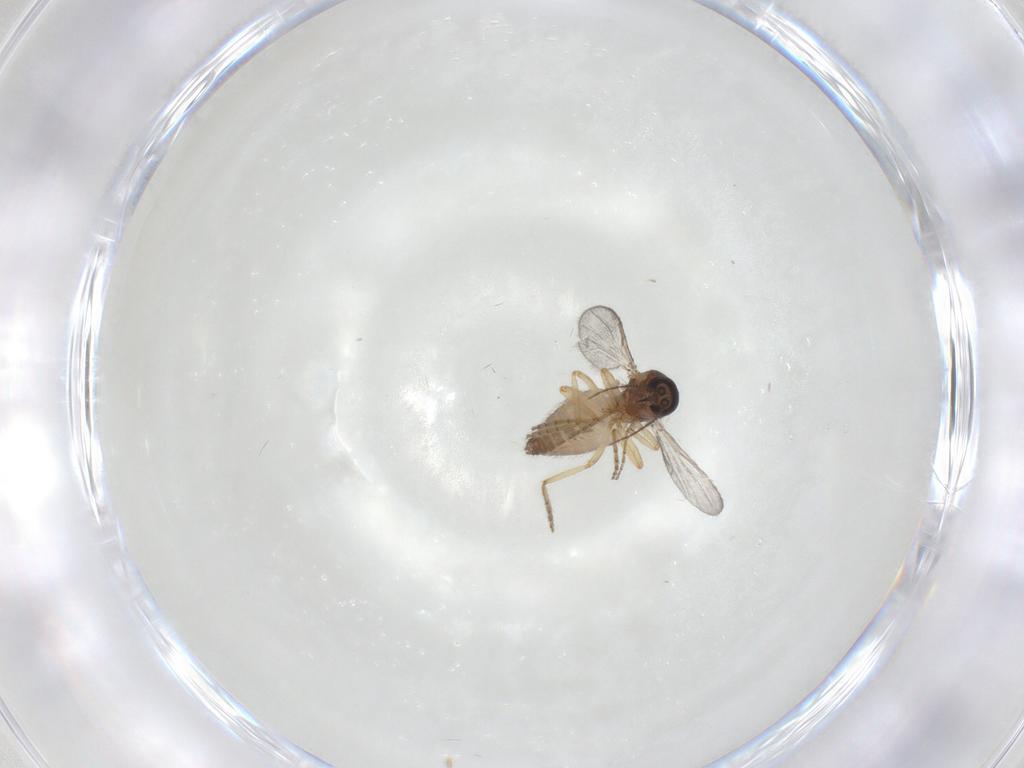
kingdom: Animalia
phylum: Arthropoda
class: Insecta
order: Diptera
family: Ceratopogonidae
